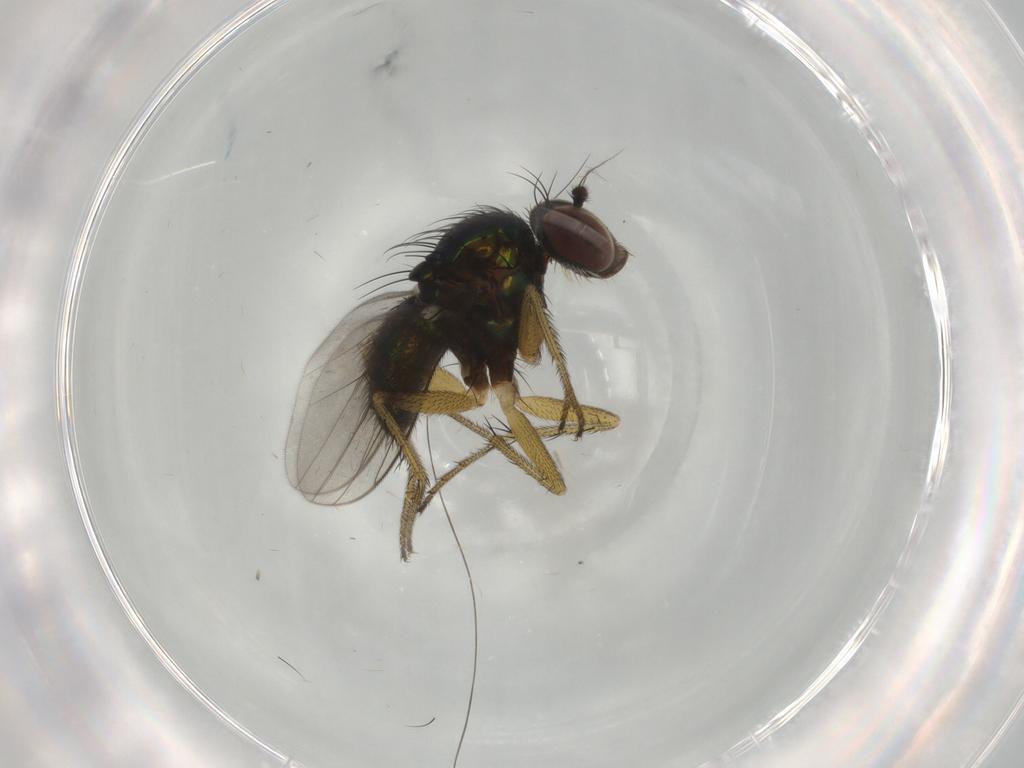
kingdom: Animalia
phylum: Arthropoda
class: Insecta
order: Diptera
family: Dolichopodidae
